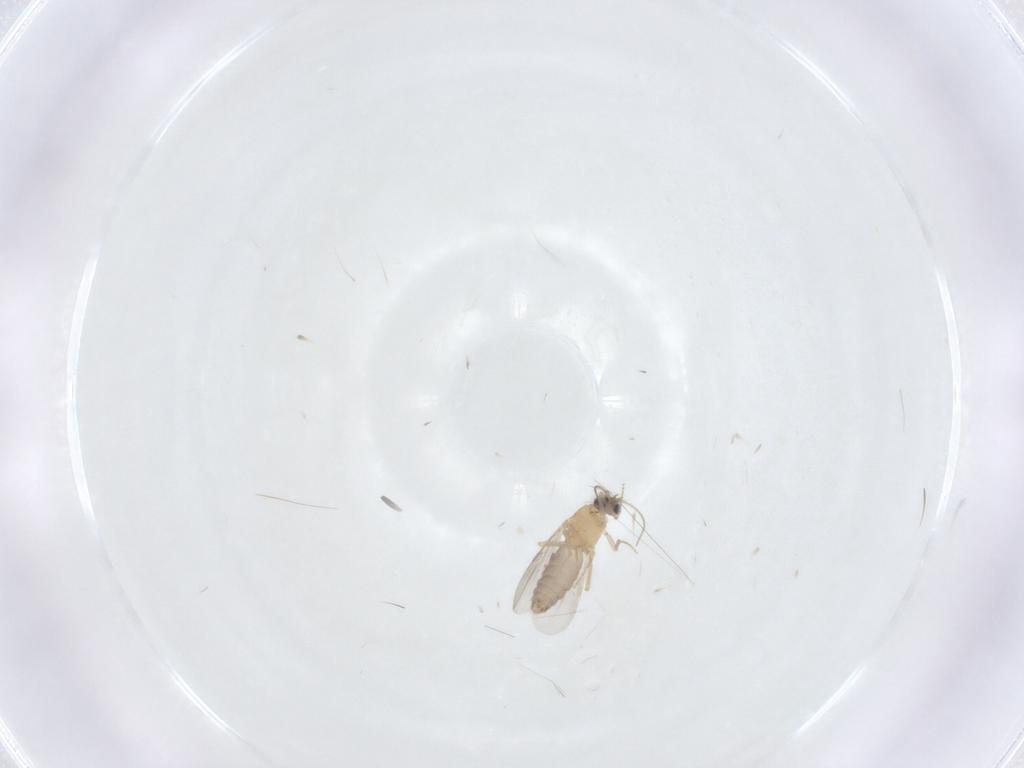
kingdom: Animalia
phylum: Arthropoda
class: Insecta
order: Diptera
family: Ceratopogonidae
